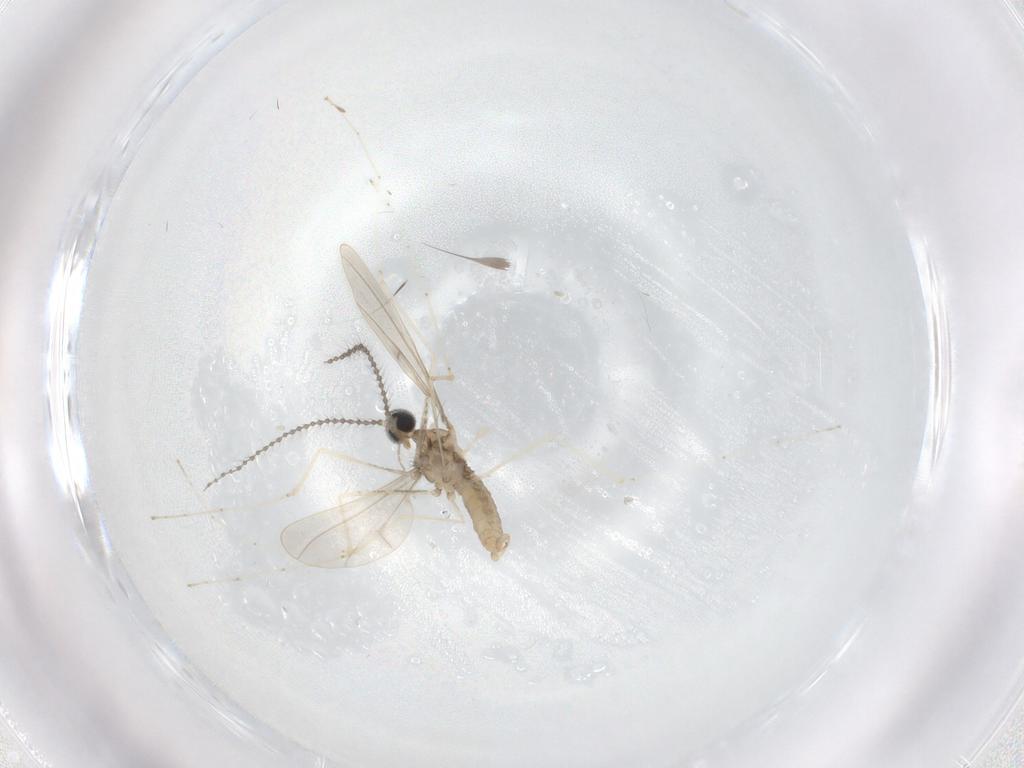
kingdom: Animalia
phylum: Arthropoda
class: Insecta
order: Diptera
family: Cecidomyiidae
